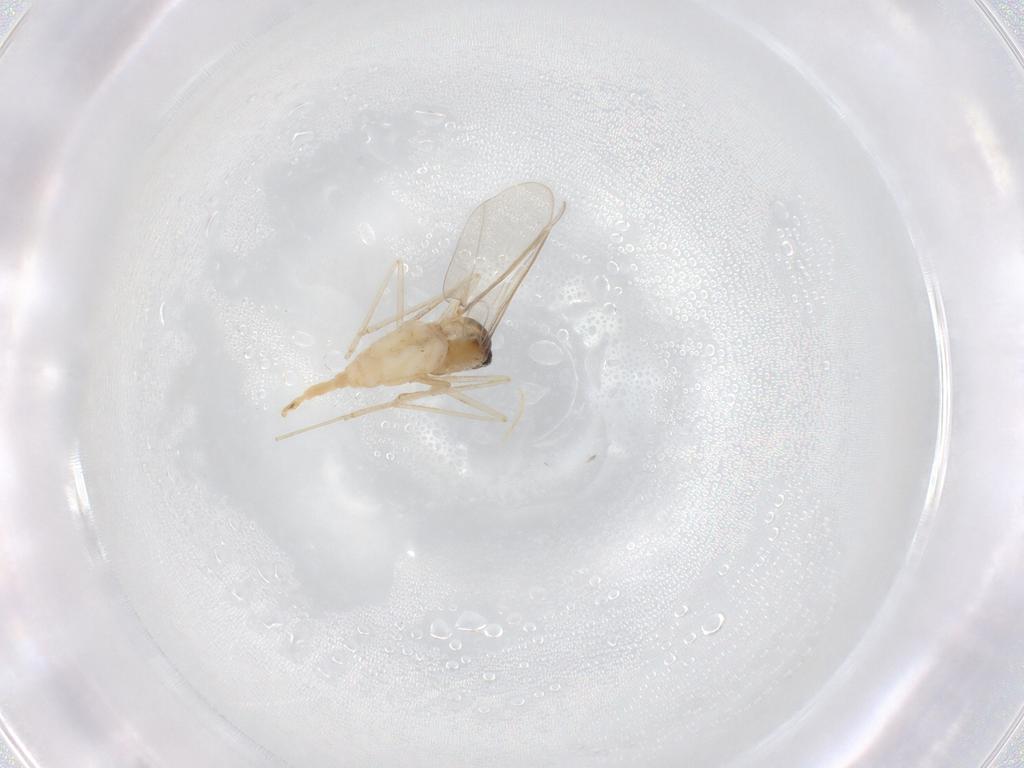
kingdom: Animalia
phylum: Arthropoda
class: Insecta
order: Diptera
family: Cecidomyiidae
